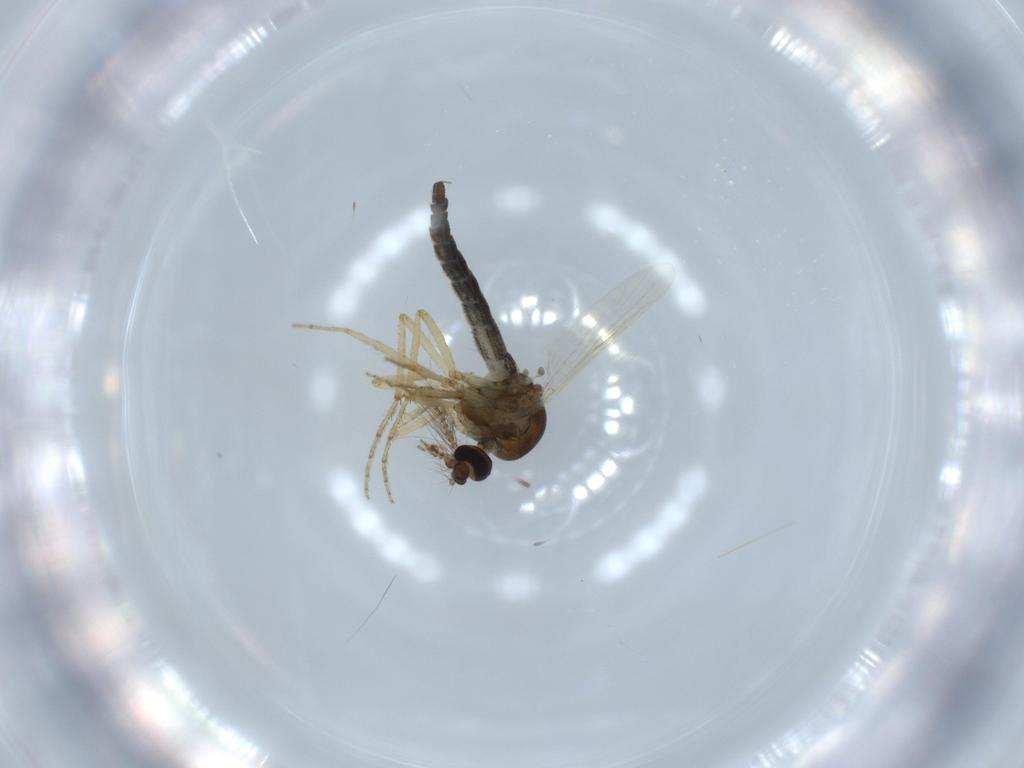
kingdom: Animalia
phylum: Arthropoda
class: Insecta
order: Diptera
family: Ceratopogonidae
